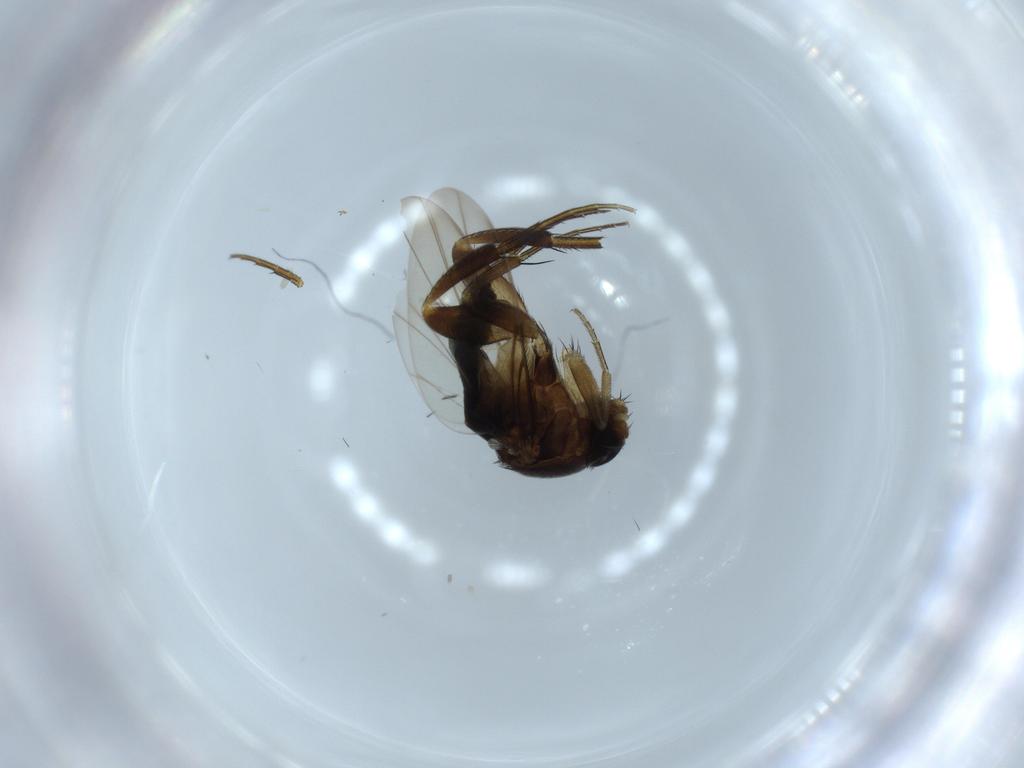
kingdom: Animalia
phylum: Arthropoda
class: Insecta
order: Diptera
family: Phoridae
